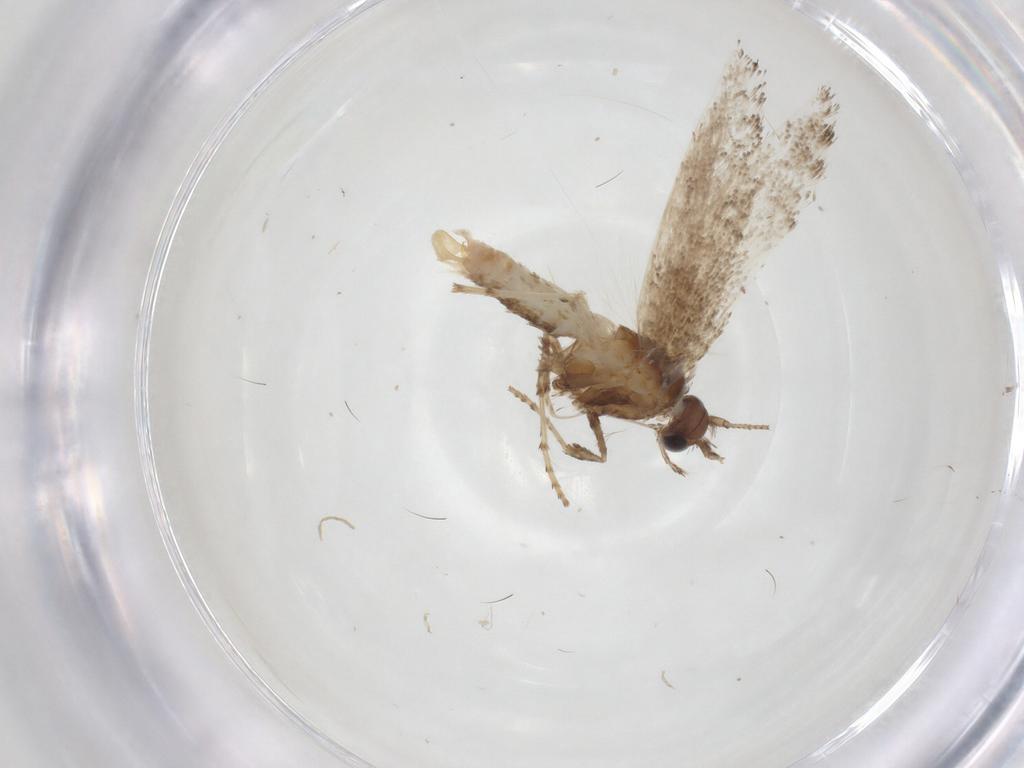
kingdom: Animalia
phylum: Arthropoda
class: Insecta
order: Lepidoptera
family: Gracillariidae
